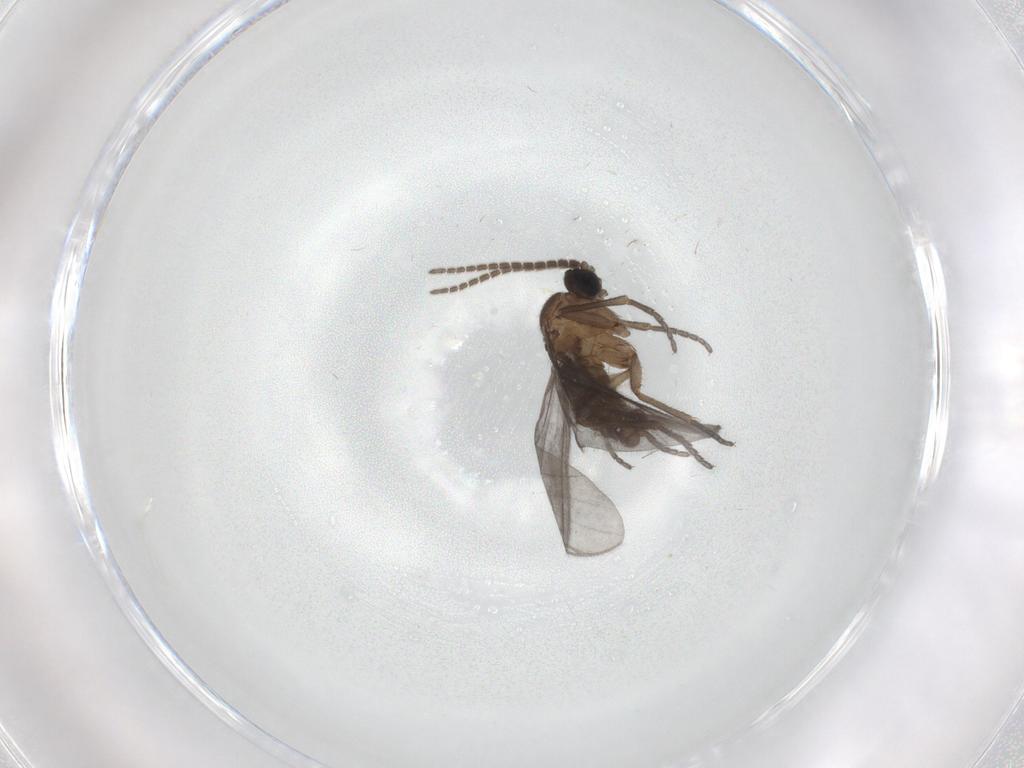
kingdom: Animalia
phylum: Arthropoda
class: Insecta
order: Diptera
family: Sciaridae
